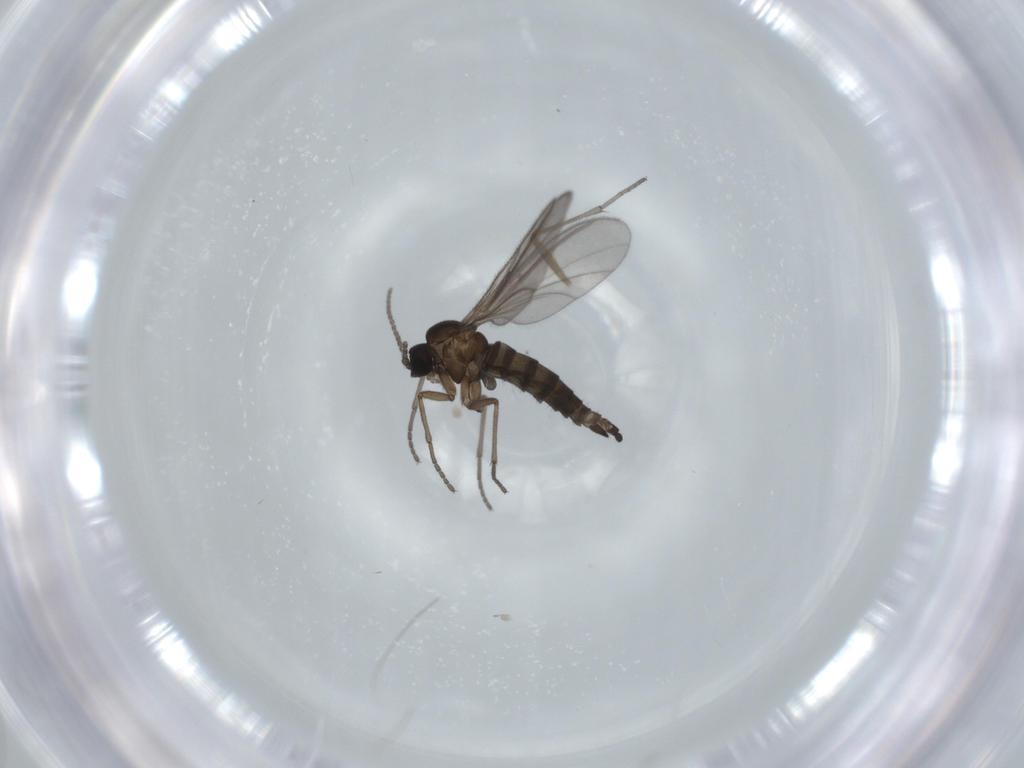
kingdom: Animalia
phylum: Arthropoda
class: Insecta
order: Diptera
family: Sciaridae
